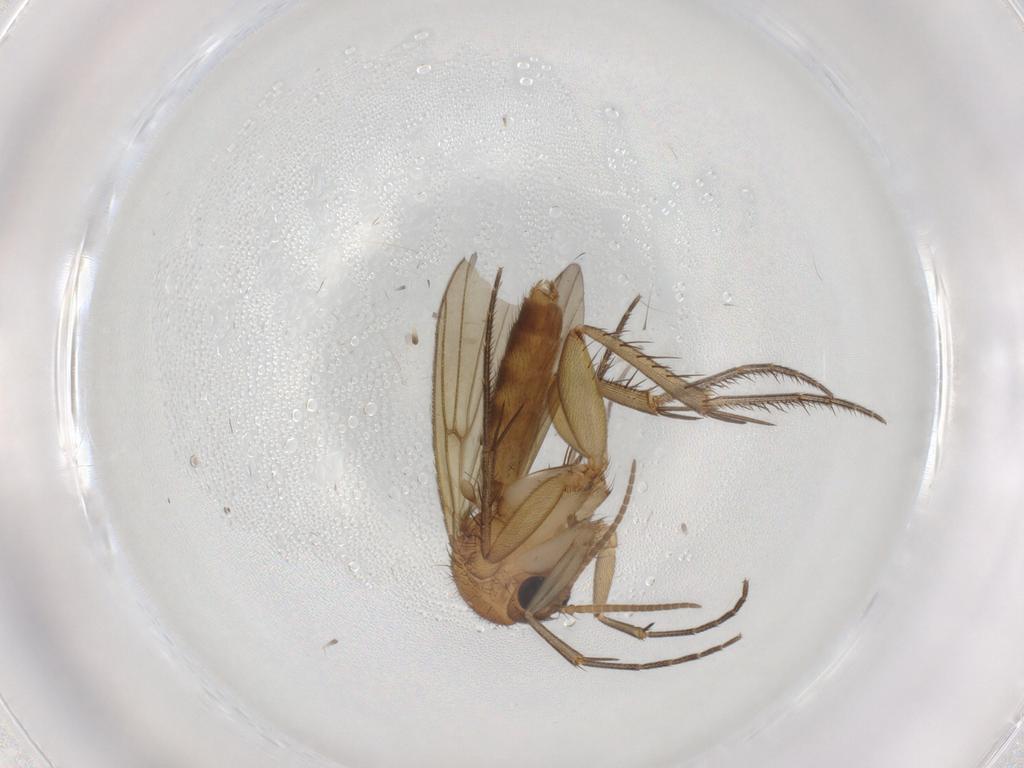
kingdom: Animalia
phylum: Arthropoda
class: Insecta
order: Diptera
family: Mycetophilidae
